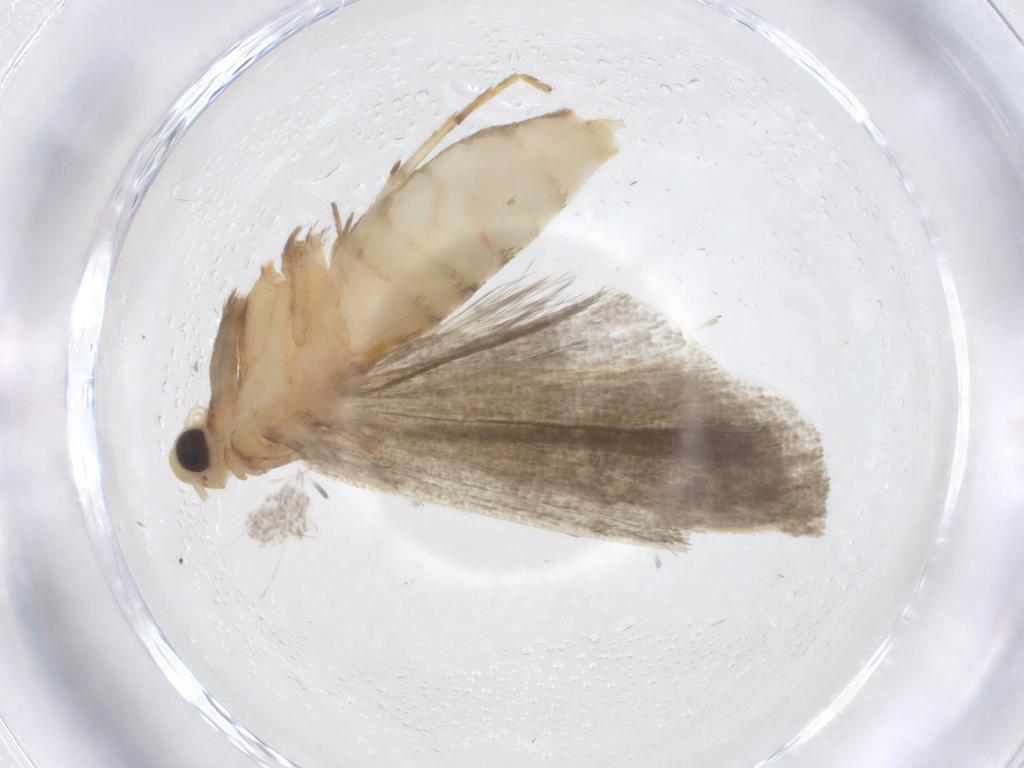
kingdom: Animalia
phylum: Arthropoda
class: Insecta
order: Lepidoptera
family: Pyralidae
